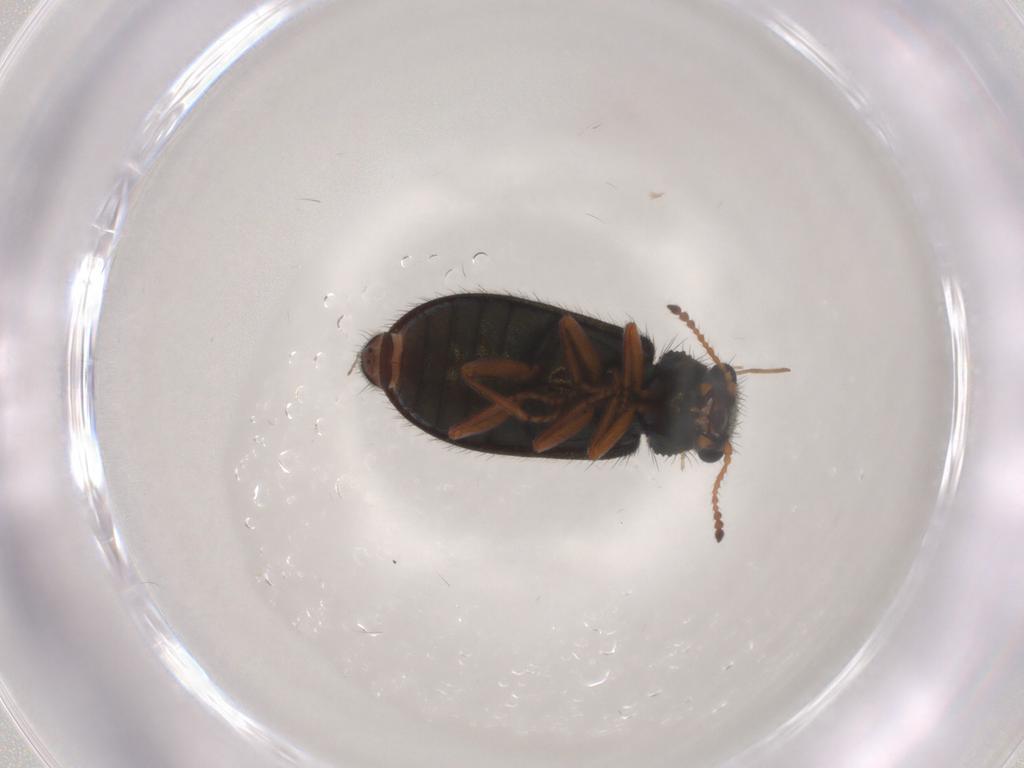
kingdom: Animalia
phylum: Arthropoda
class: Insecta
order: Coleoptera
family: Melyridae
